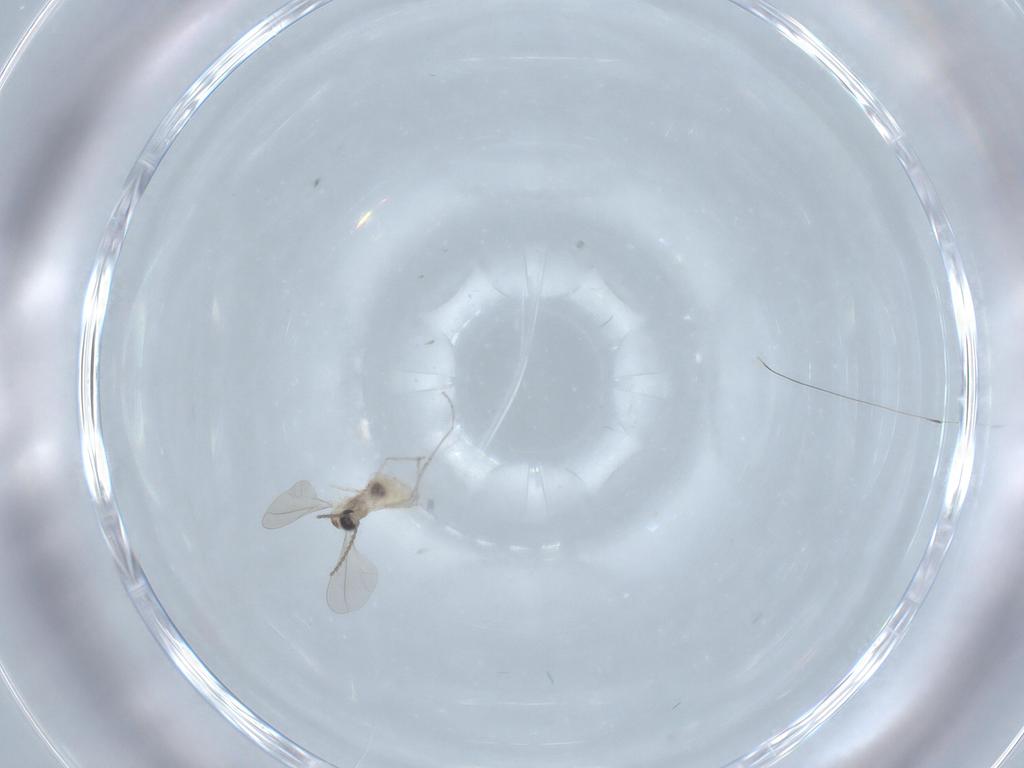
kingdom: Animalia
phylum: Arthropoda
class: Insecta
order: Diptera
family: Cecidomyiidae
